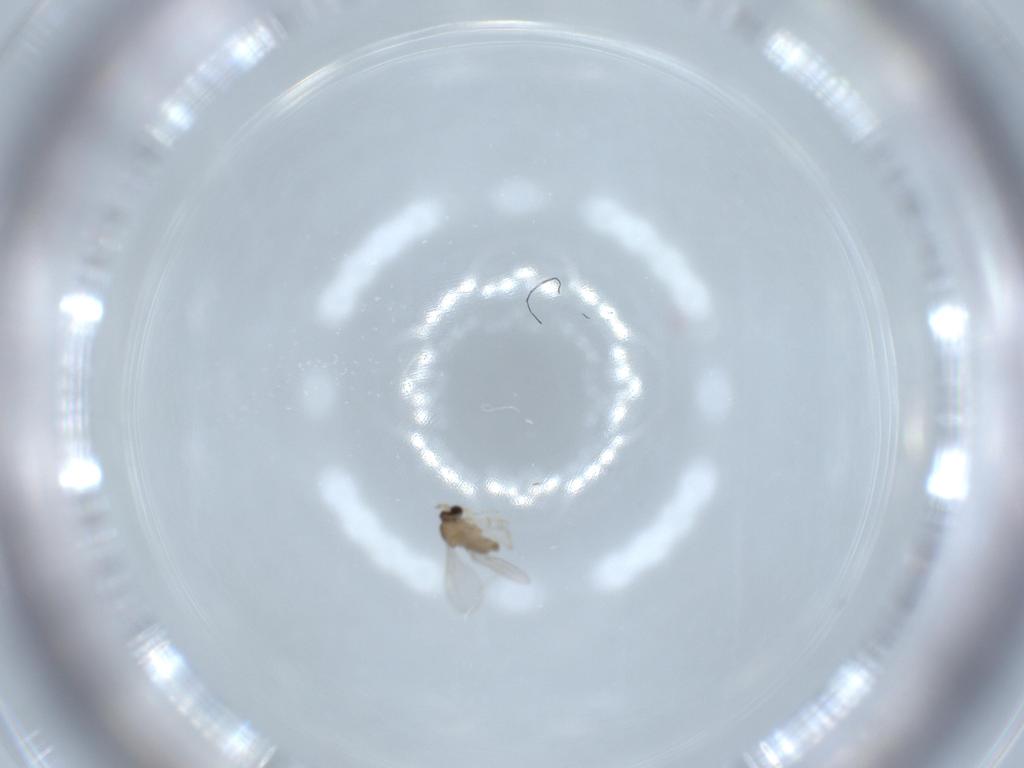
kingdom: Animalia
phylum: Arthropoda
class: Insecta
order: Diptera
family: Cecidomyiidae
